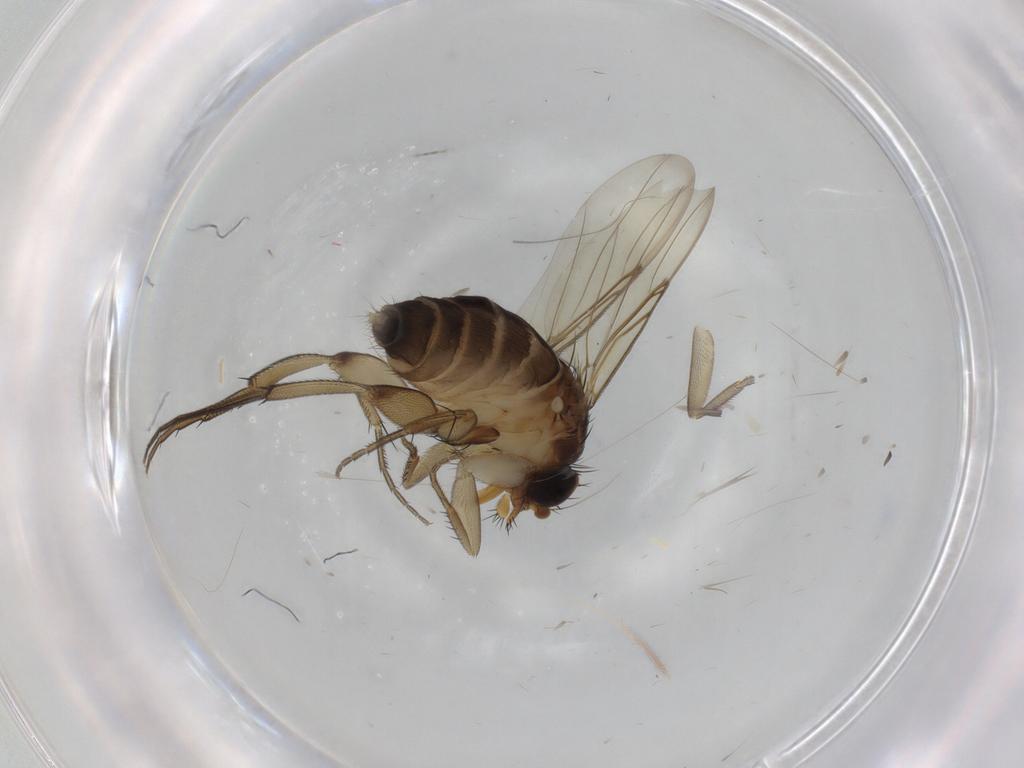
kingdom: Animalia
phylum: Arthropoda
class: Insecta
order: Diptera
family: Phoridae
